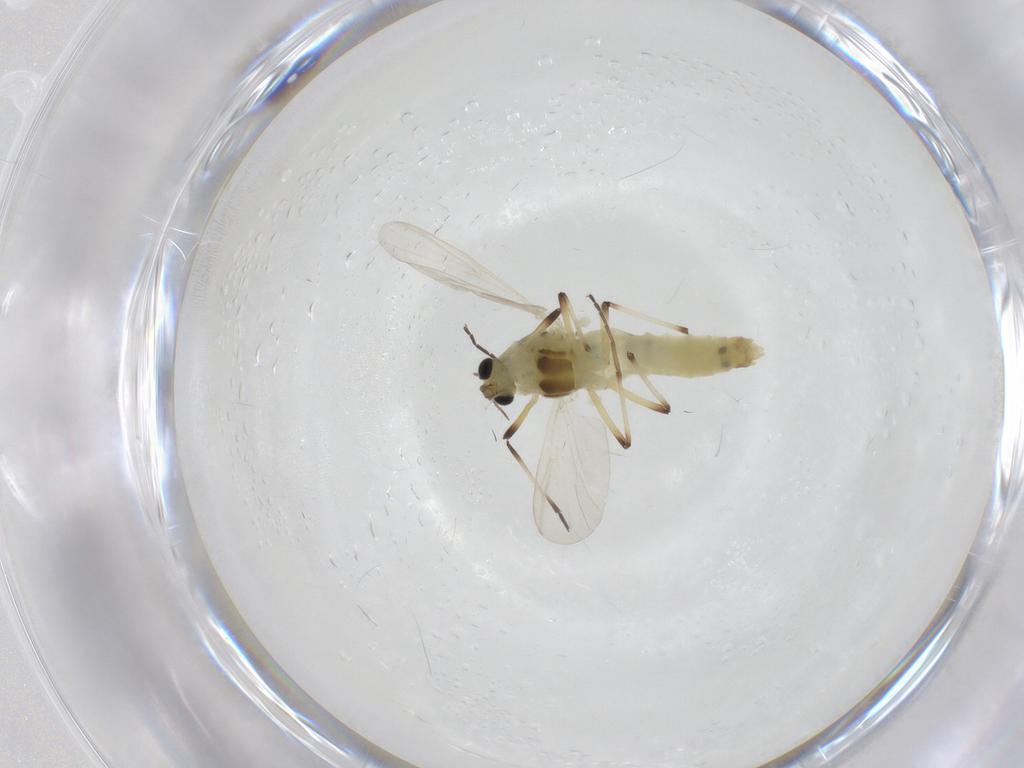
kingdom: Animalia
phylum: Arthropoda
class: Insecta
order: Diptera
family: Chironomidae
